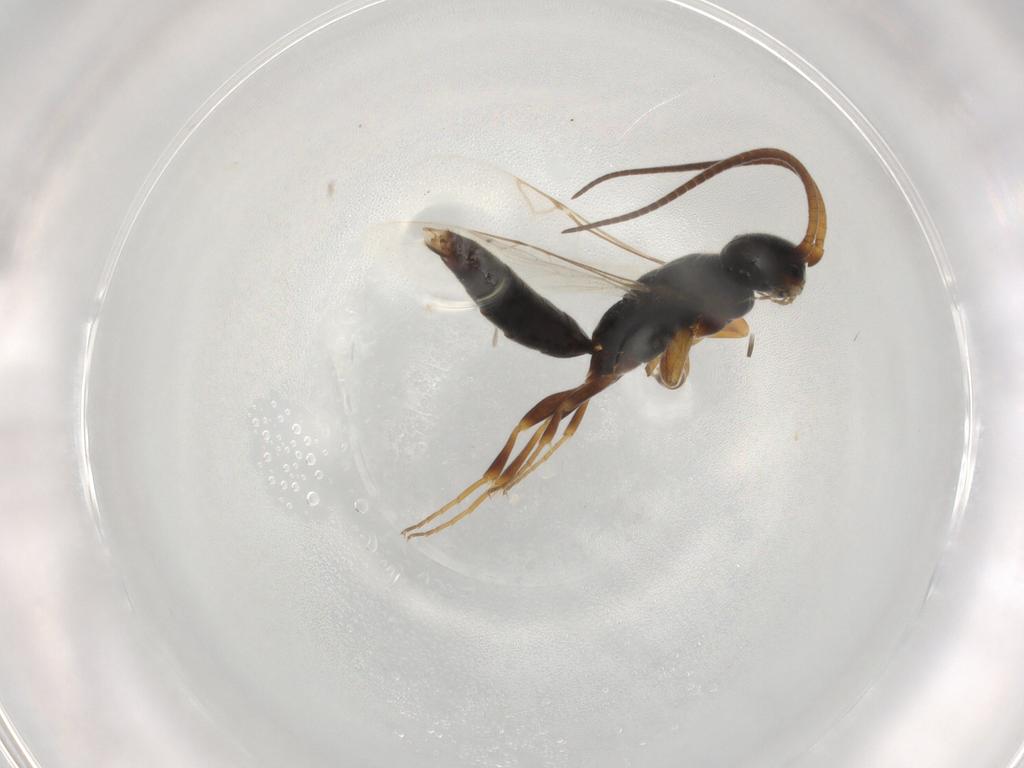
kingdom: Animalia
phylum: Arthropoda
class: Insecta
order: Hymenoptera
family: Sclerogibbidae
